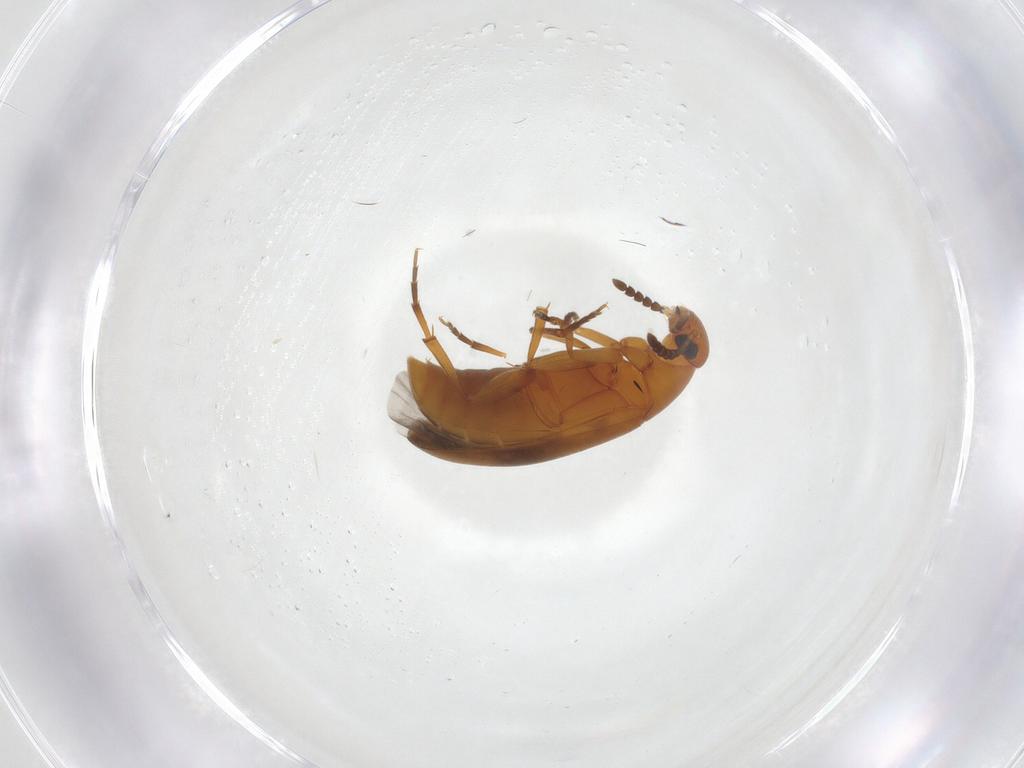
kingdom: Animalia
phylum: Arthropoda
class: Insecta
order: Coleoptera
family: Scraptiidae
